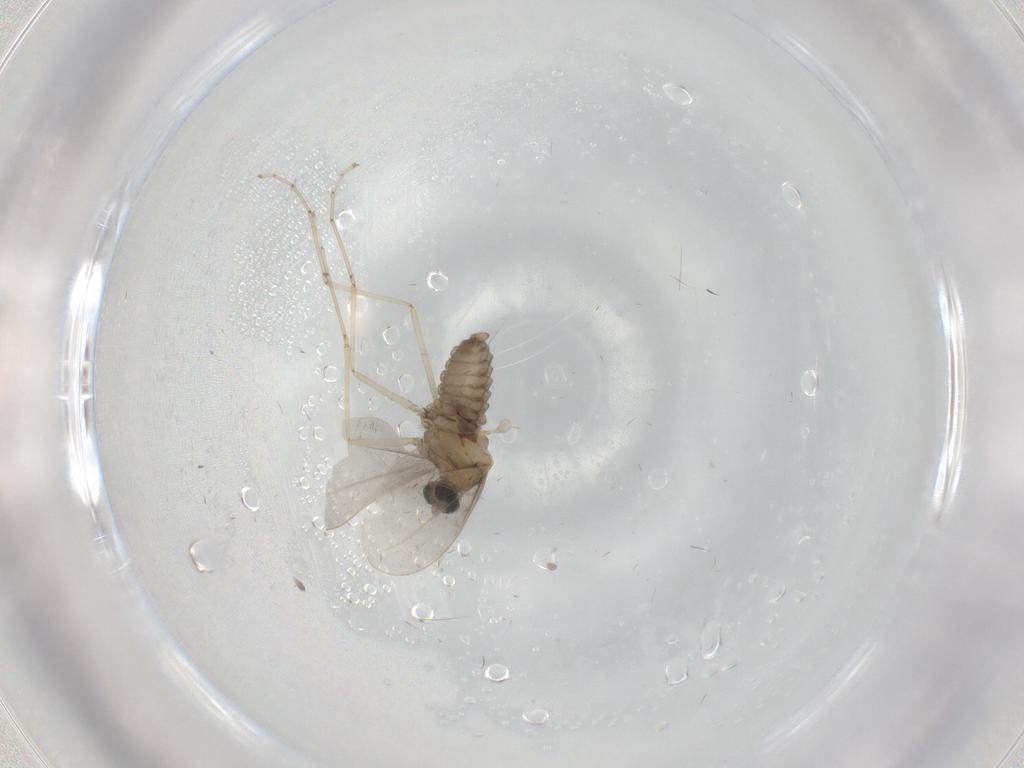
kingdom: Animalia
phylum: Arthropoda
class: Insecta
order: Diptera
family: Cecidomyiidae
